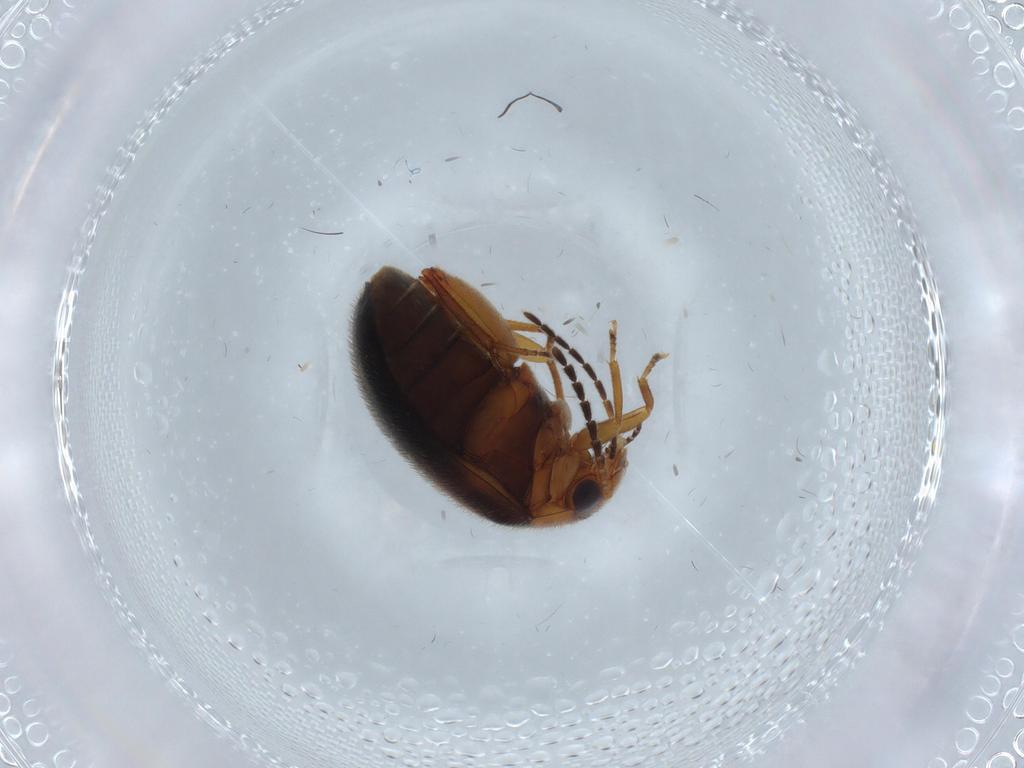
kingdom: Animalia
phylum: Arthropoda
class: Insecta
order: Coleoptera
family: Scirtidae
